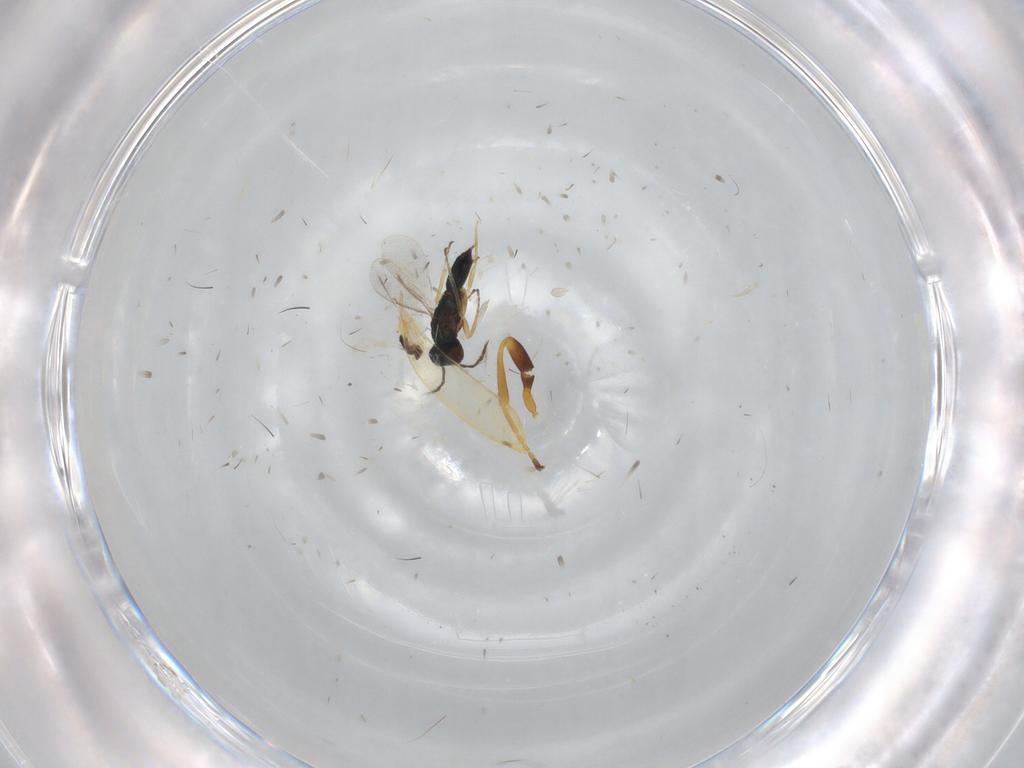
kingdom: Animalia
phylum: Arthropoda
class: Insecta
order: Hymenoptera
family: Eulophidae
